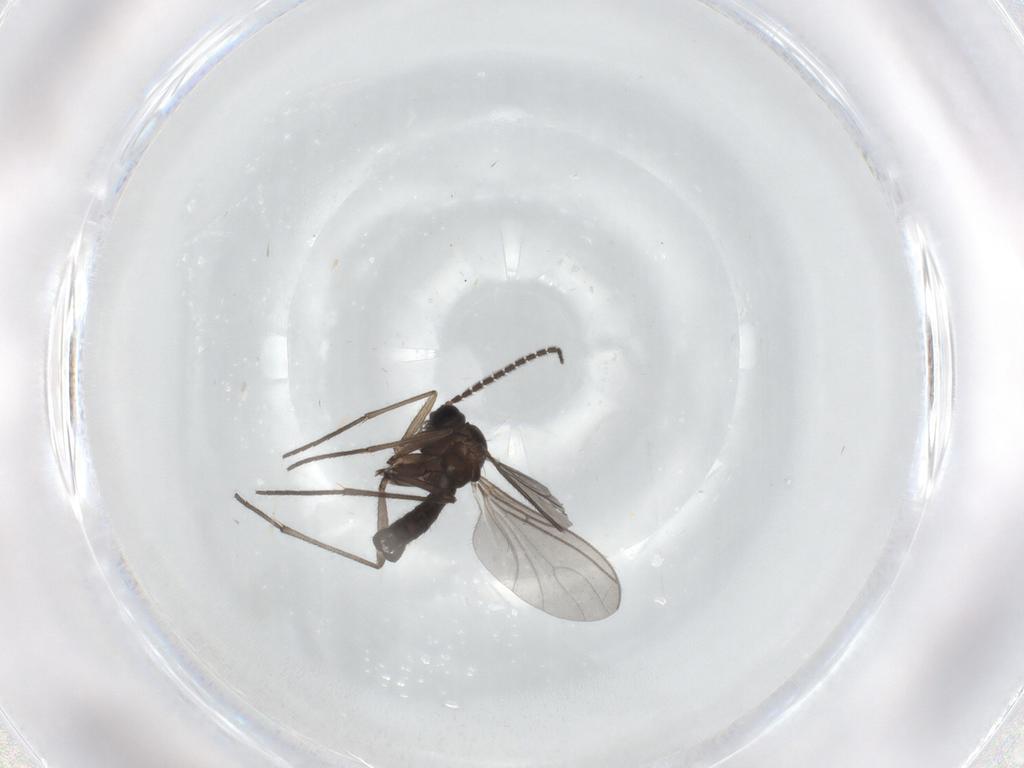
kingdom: Animalia
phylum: Arthropoda
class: Insecta
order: Diptera
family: Sciaridae
